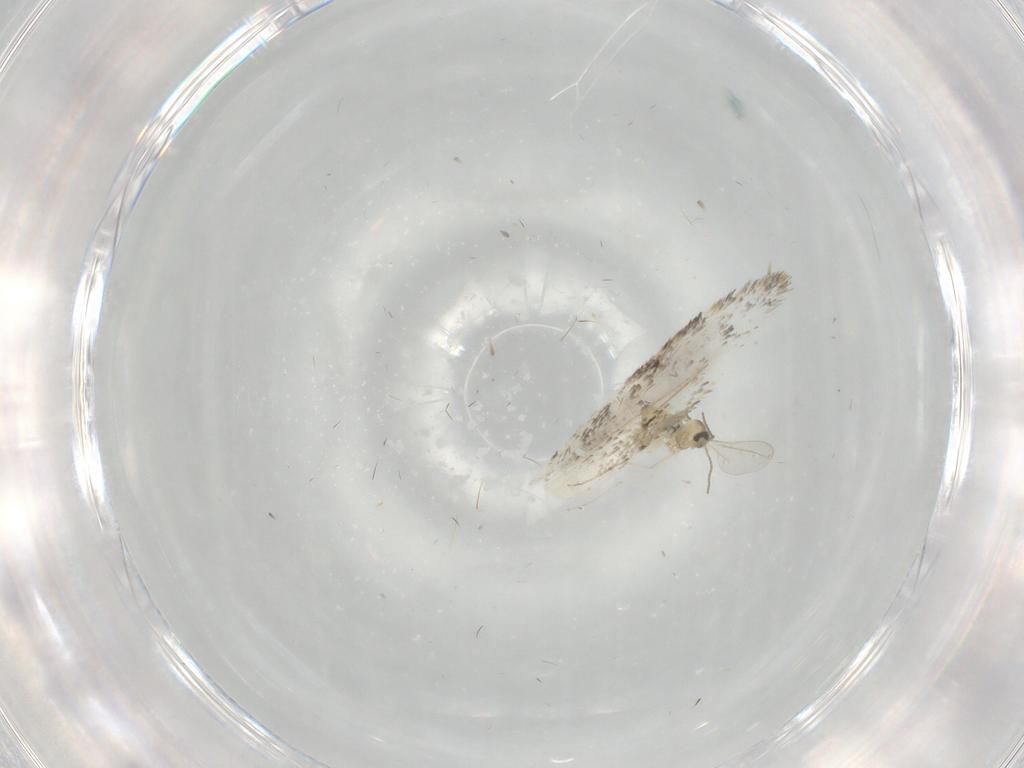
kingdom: Animalia
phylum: Arthropoda
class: Insecta
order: Diptera
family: Cecidomyiidae
